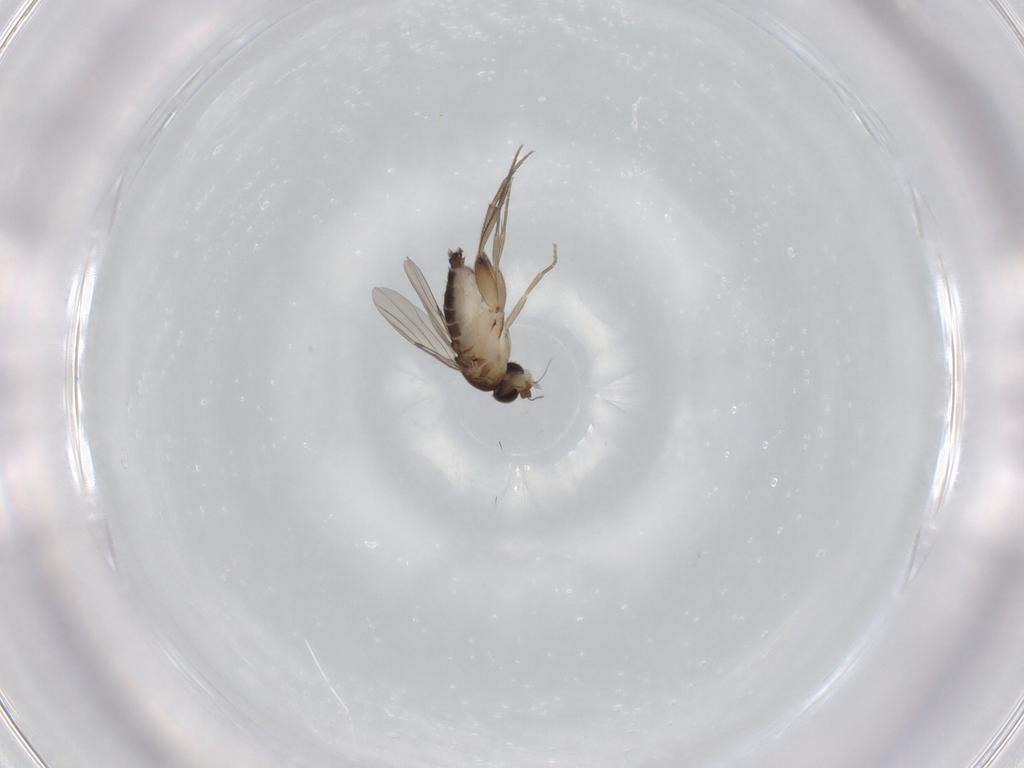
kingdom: Animalia
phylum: Arthropoda
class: Insecta
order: Diptera
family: Phoridae
